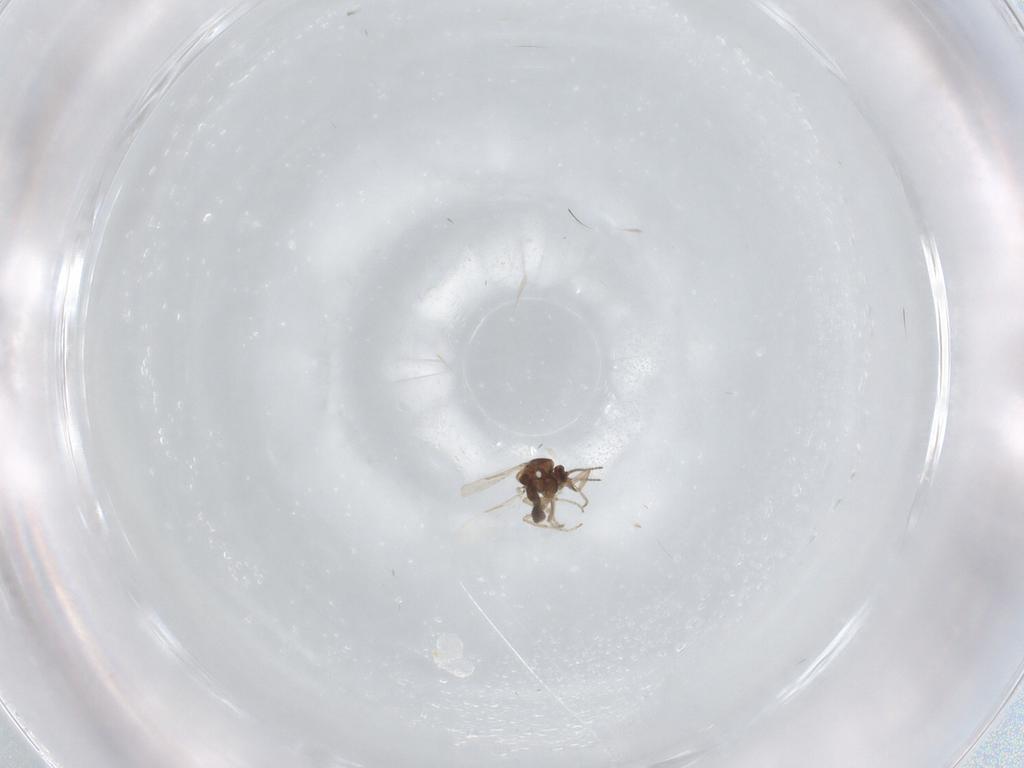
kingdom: Animalia
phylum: Arthropoda
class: Insecta
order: Diptera
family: Ceratopogonidae
